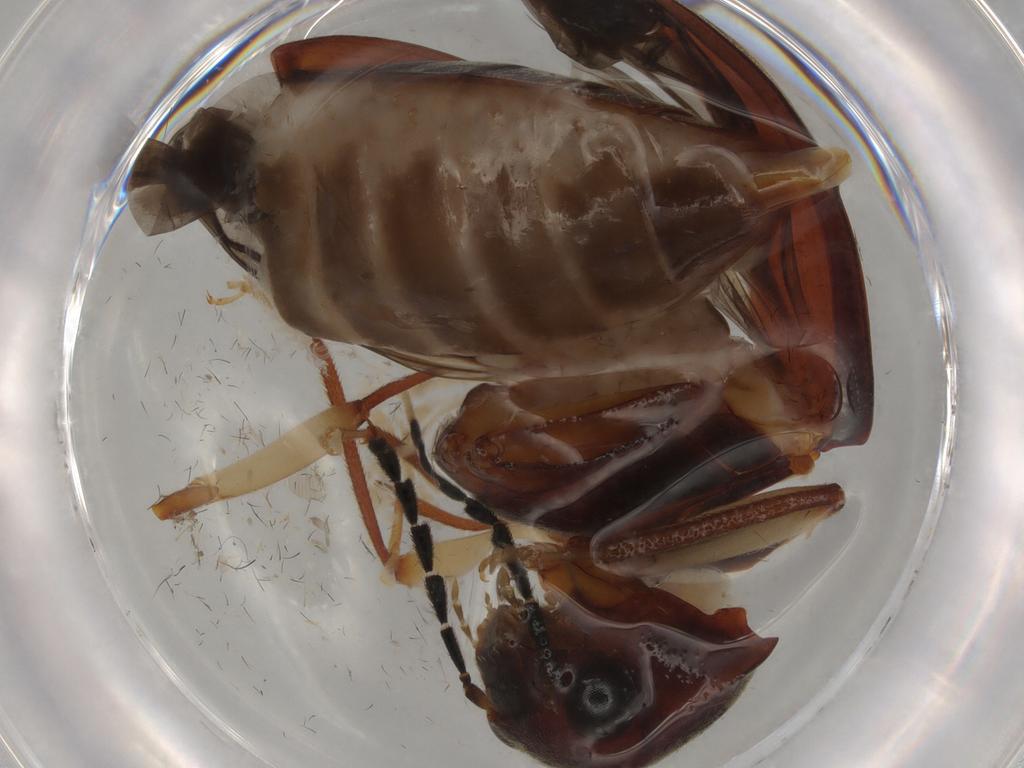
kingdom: Animalia
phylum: Arthropoda
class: Insecta
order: Coleoptera
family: Ptilodactylidae
